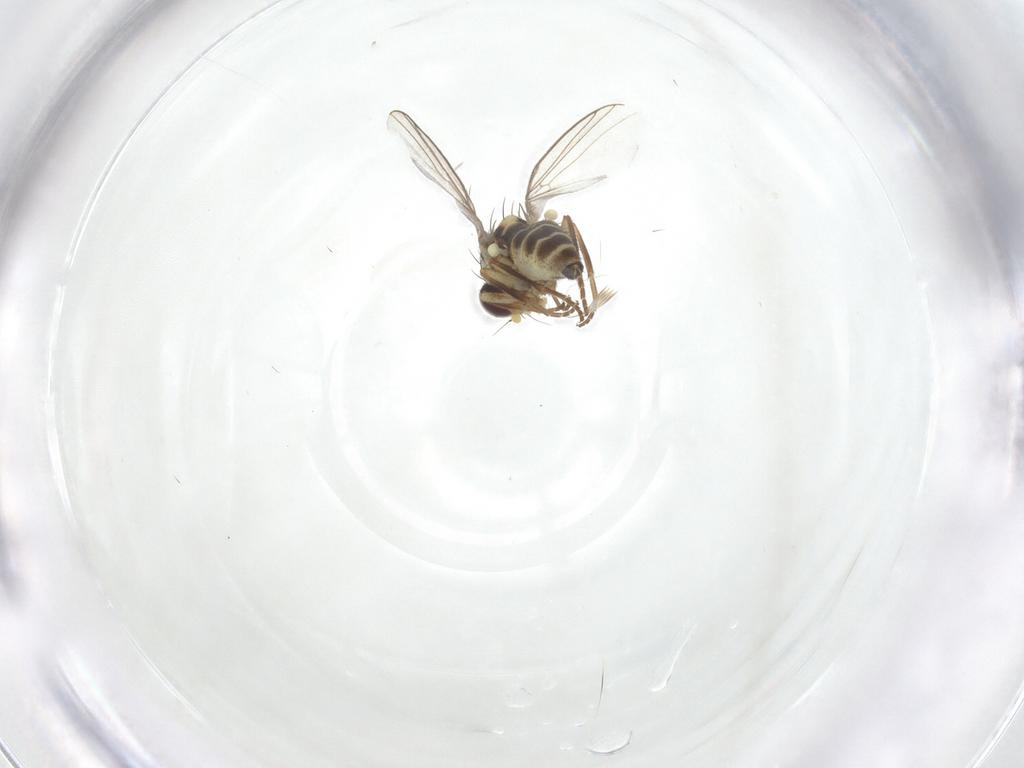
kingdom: Animalia
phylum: Arthropoda
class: Insecta
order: Diptera
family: Agromyzidae
